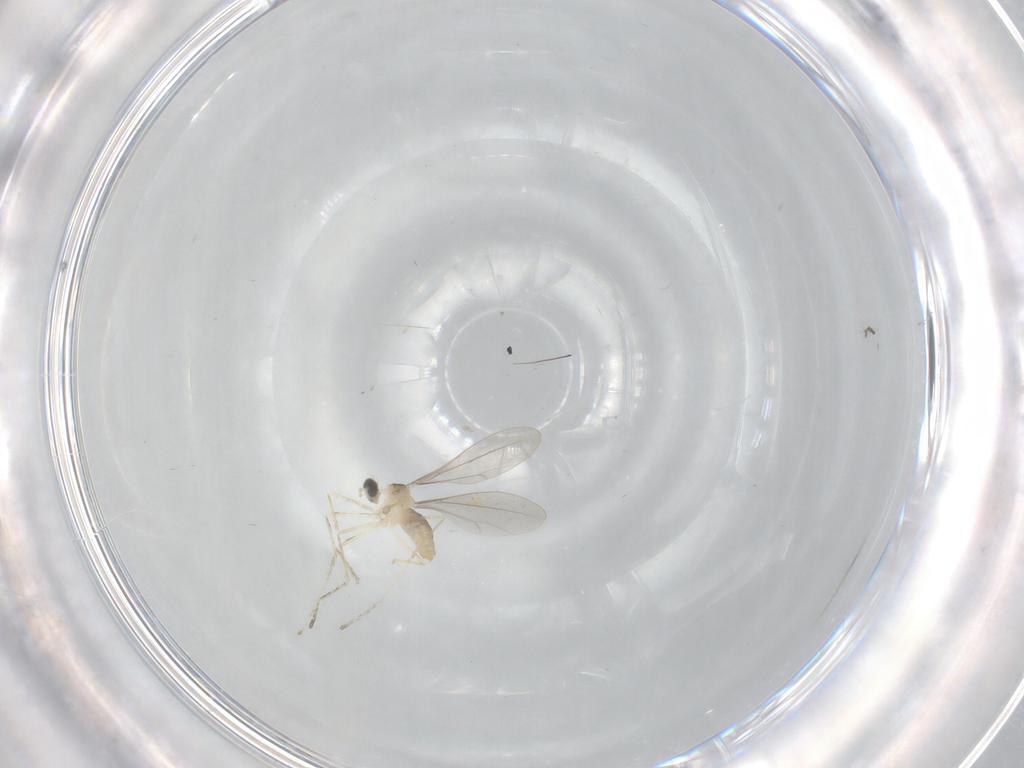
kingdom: Animalia
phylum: Arthropoda
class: Insecta
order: Diptera
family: Cecidomyiidae
